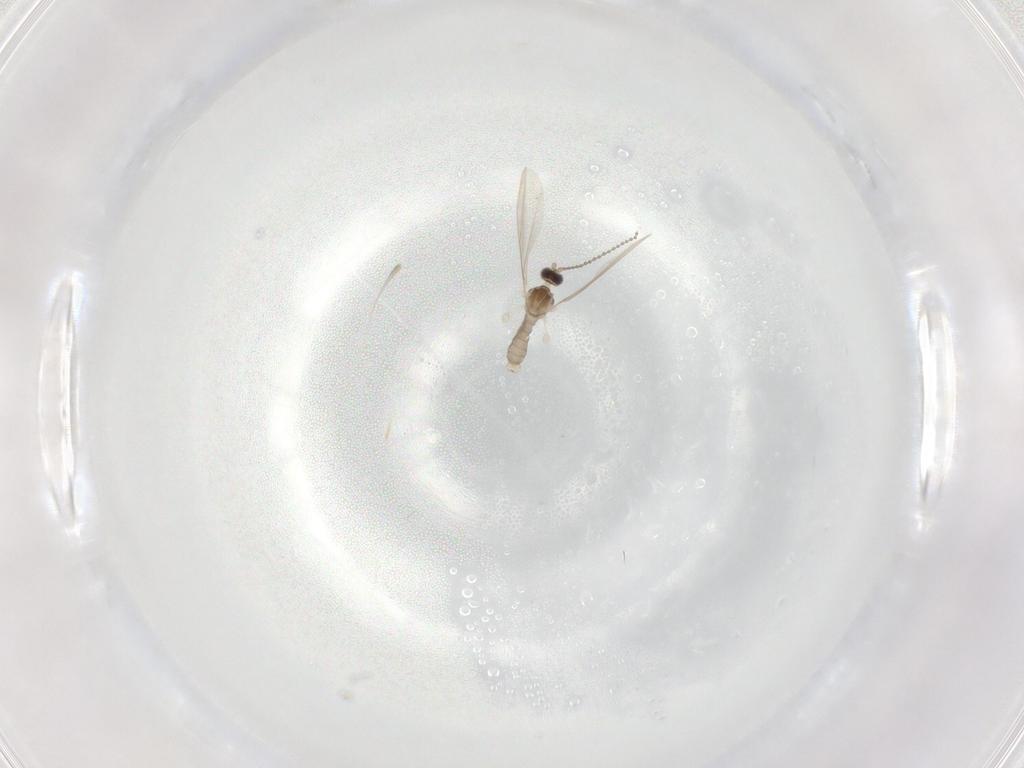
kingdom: Animalia
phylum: Arthropoda
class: Insecta
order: Diptera
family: Cecidomyiidae
